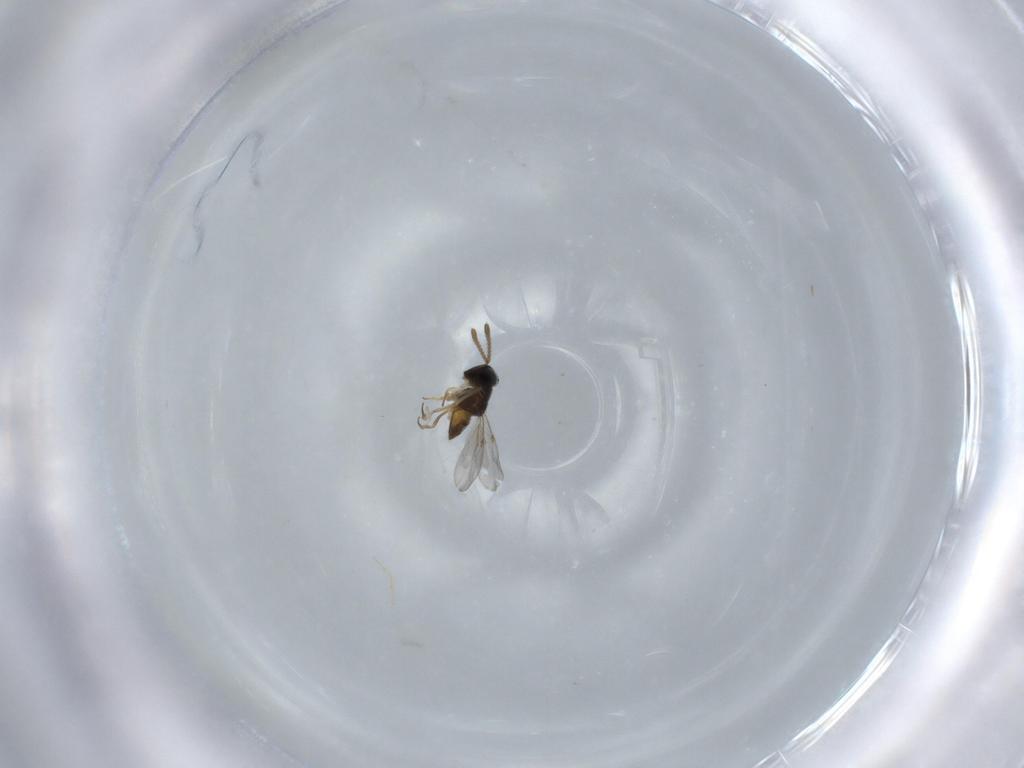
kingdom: Animalia
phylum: Arthropoda
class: Insecta
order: Hymenoptera
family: Encyrtidae
